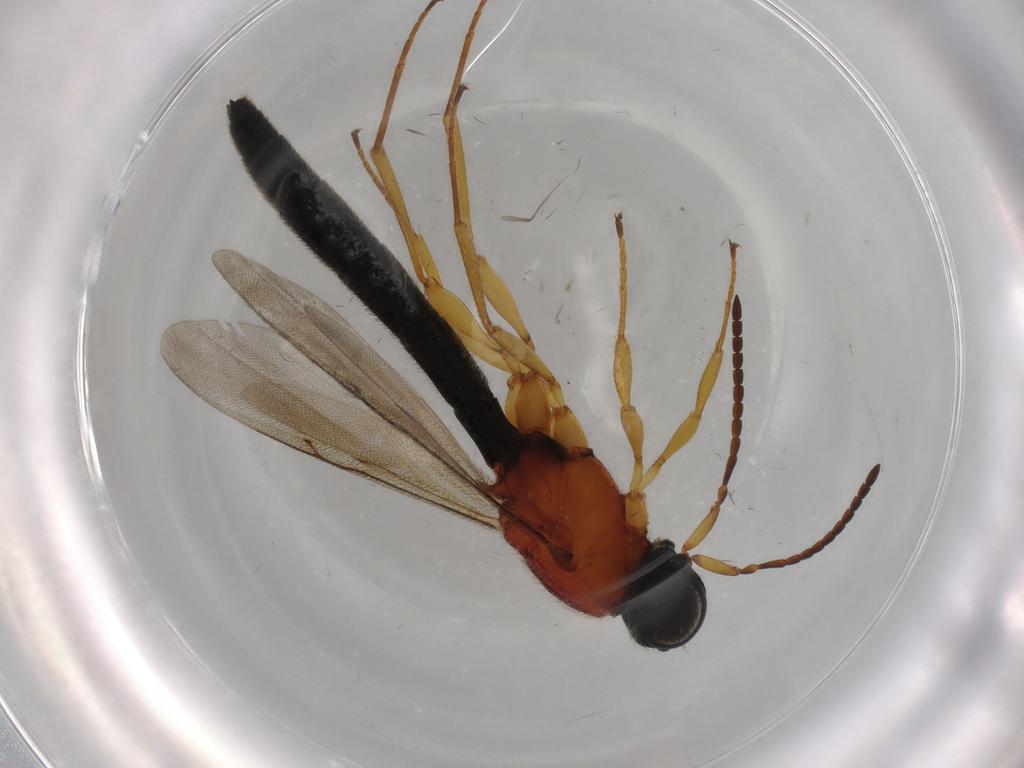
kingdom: Animalia
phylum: Arthropoda
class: Insecta
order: Hymenoptera
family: Scelionidae
